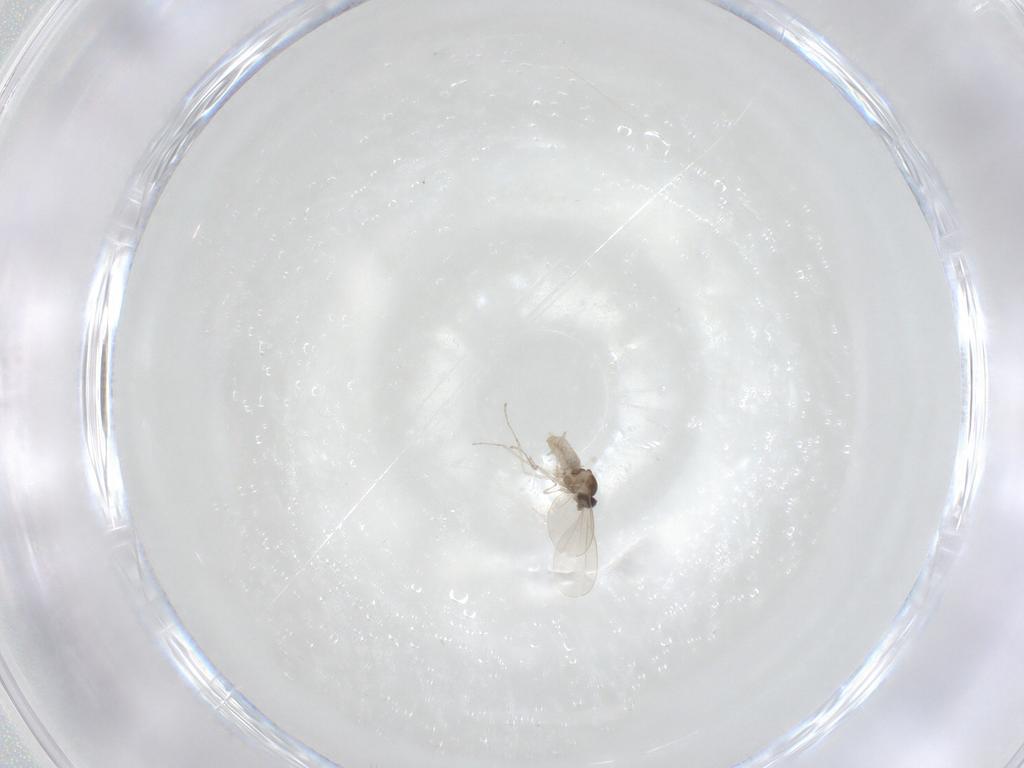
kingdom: Animalia
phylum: Arthropoda
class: Insecta
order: Diptera
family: Cecidomyiidae
